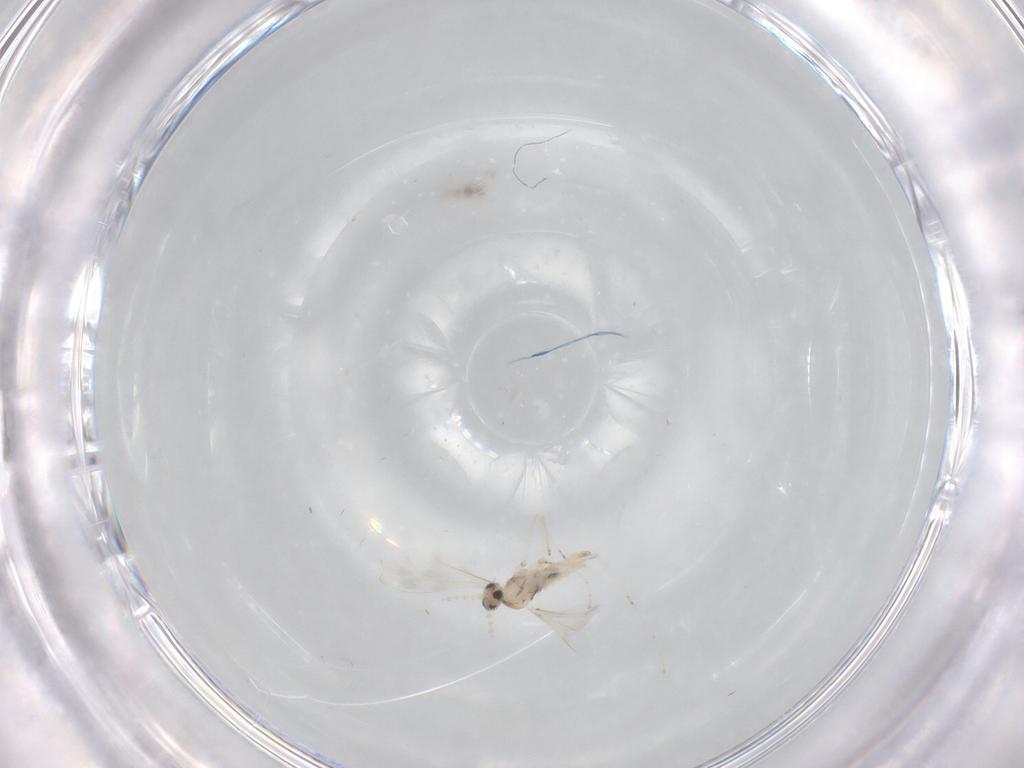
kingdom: Animalia
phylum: Arthropoda
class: Insecta
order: Diptera
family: Cecidomyiidae
